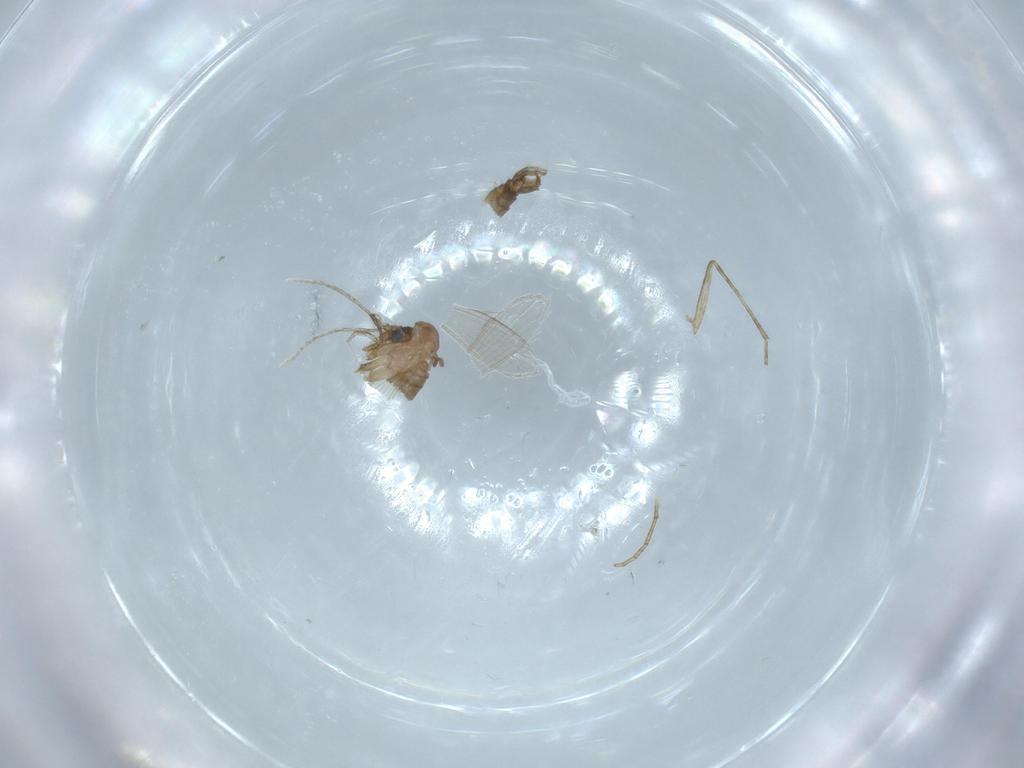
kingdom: Animalia
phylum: Arthropoda
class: Insecta
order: Diptera
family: Psychodidae
